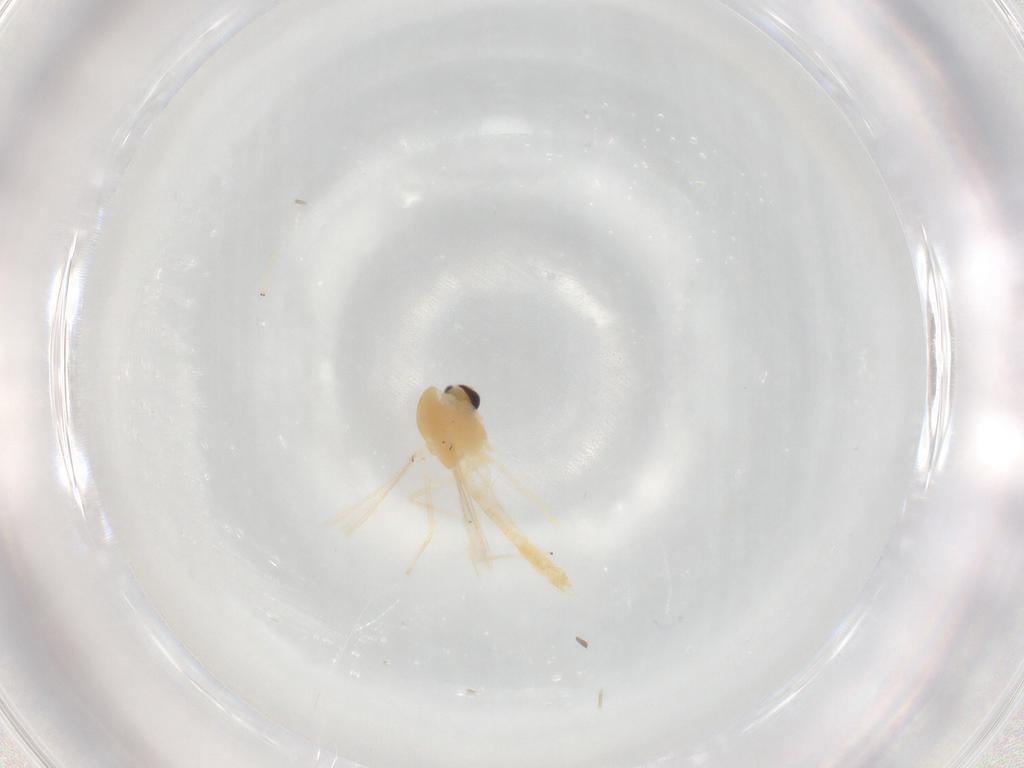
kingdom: Animalia
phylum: Arthropoda
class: Insecta
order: Diptera
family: Chironomidae
